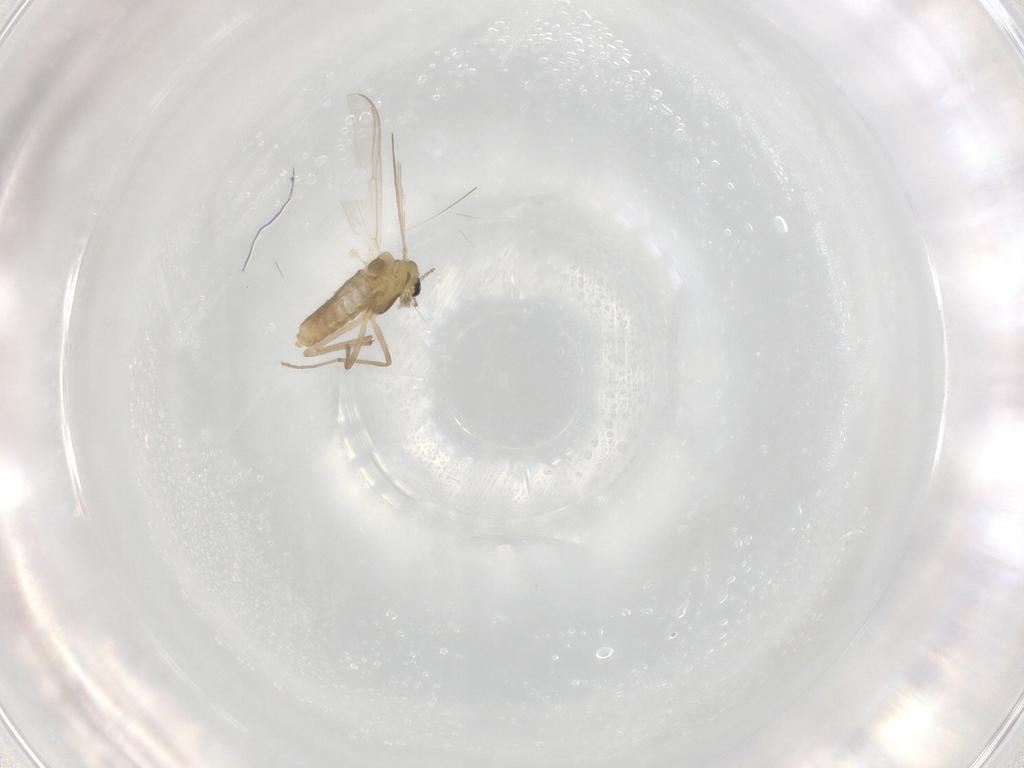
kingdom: Animalia
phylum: Arthropoda
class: Insecta
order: Diptera
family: Chironomidae
